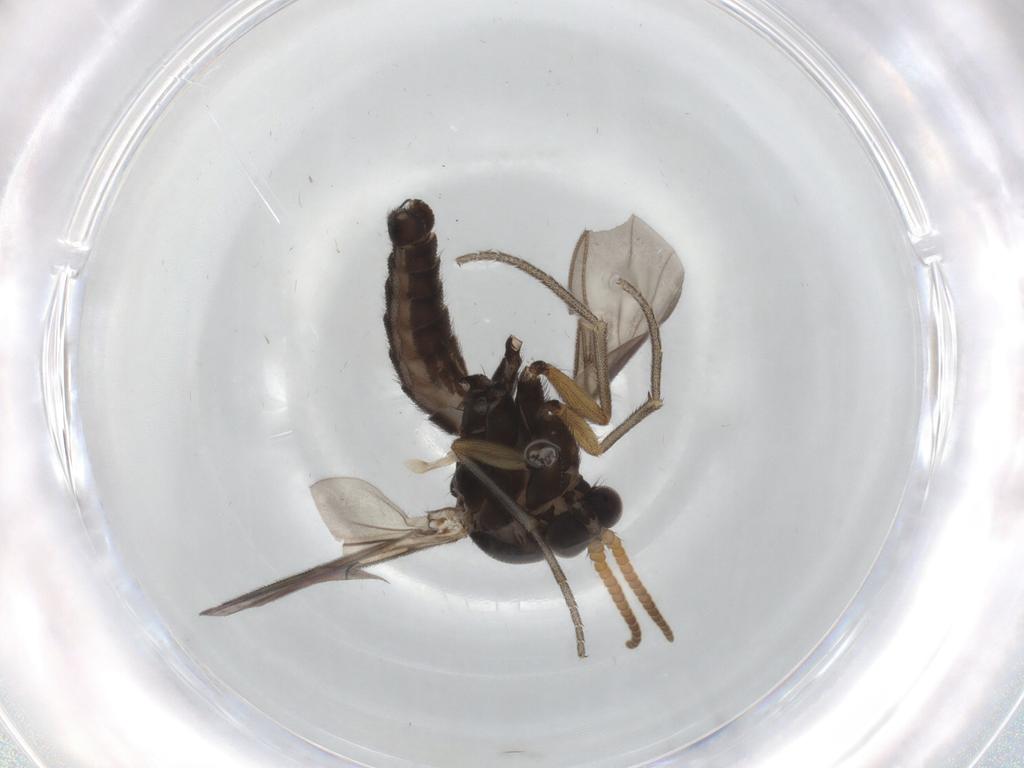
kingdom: Animalia
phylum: Arthropoda
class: Insecta
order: Diptera
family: Mycetophilidae
